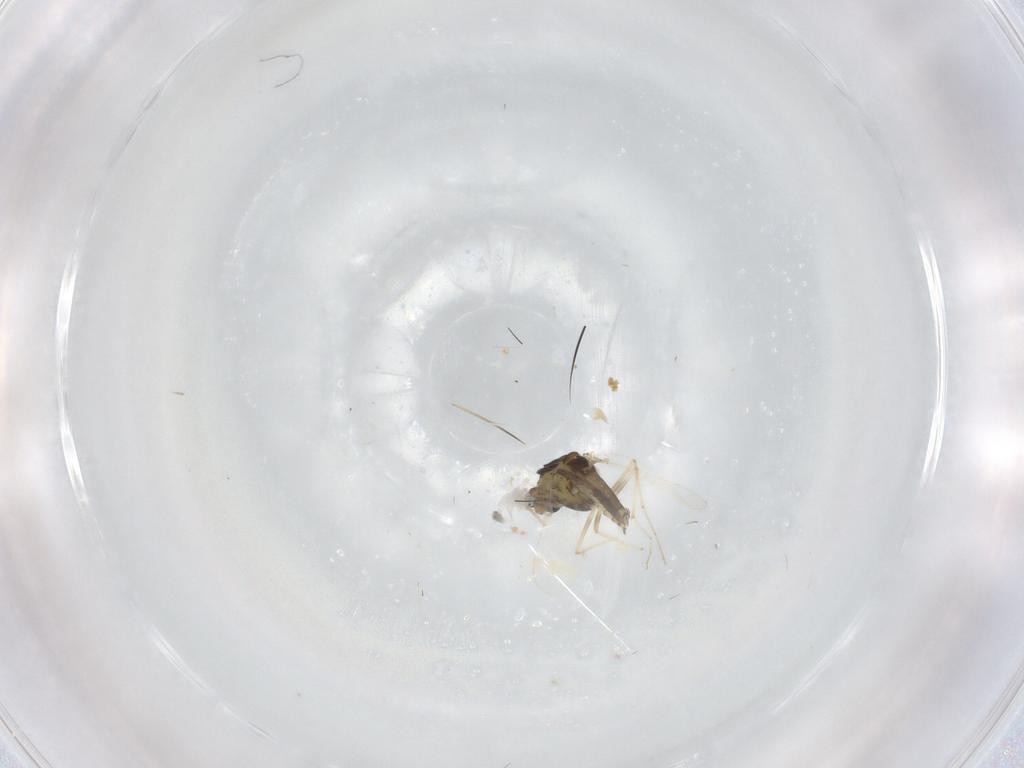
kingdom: Animalia
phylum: Arthropoda
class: Insecta
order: Diptera
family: Chironomidae
